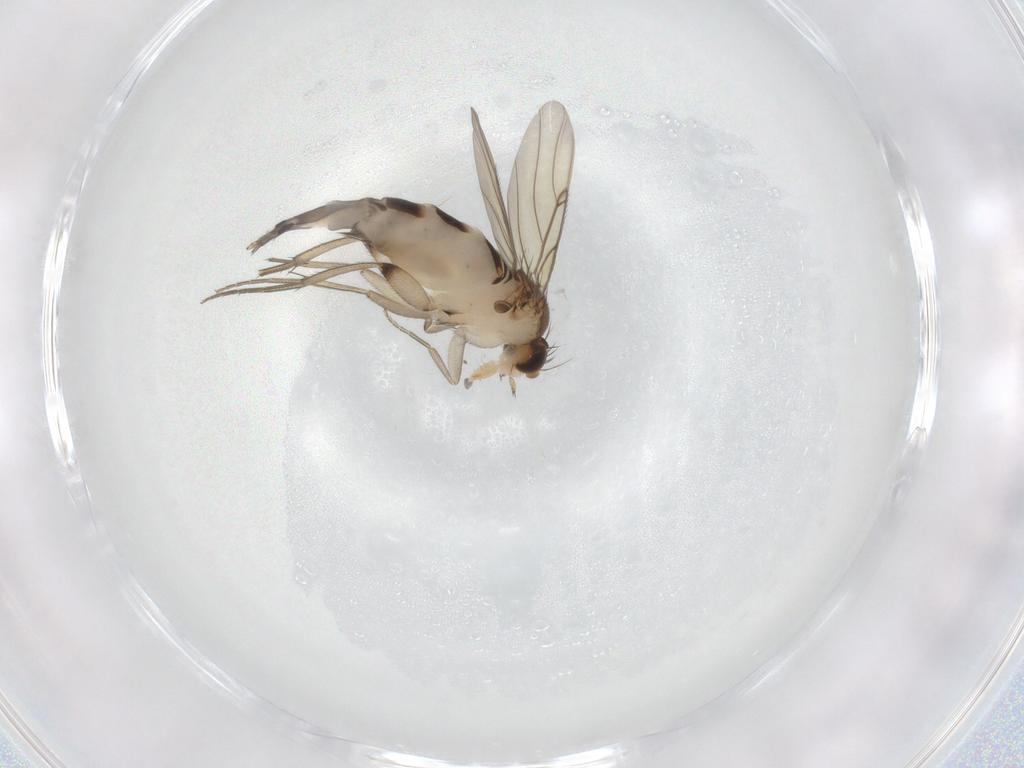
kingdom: Animalia
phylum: Arthropoda
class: Insecta
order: Diptera
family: Phoridae
